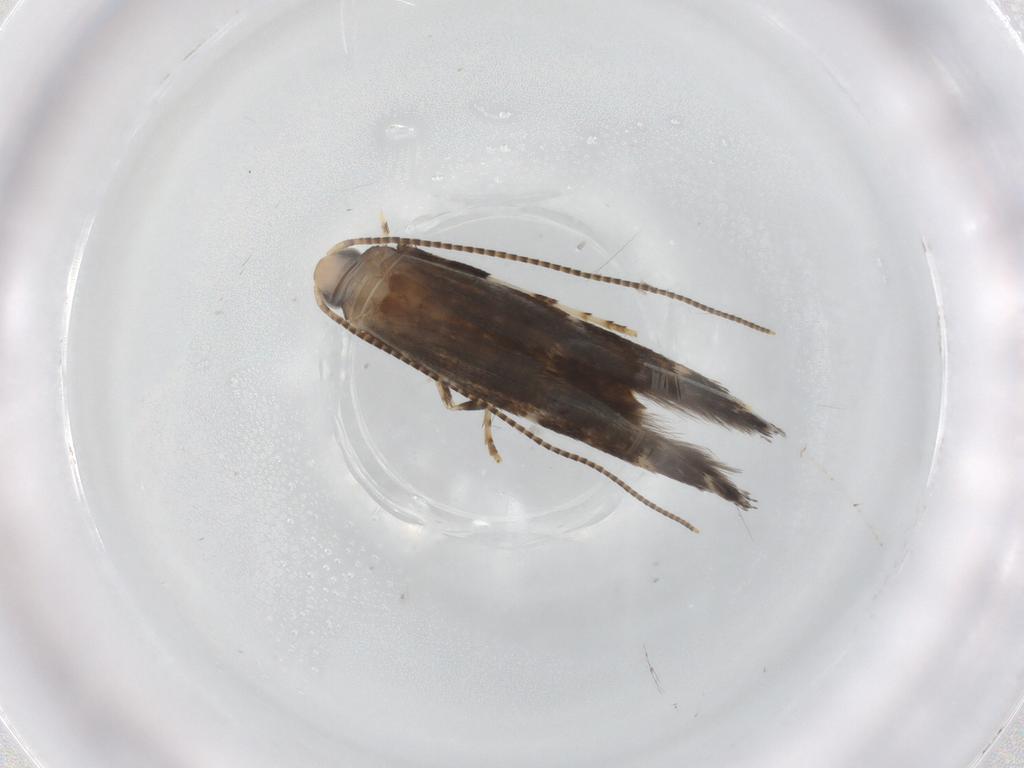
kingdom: Animalia
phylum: Arthropoda
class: Insecta
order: Lepidoptera
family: Gracillariidae
